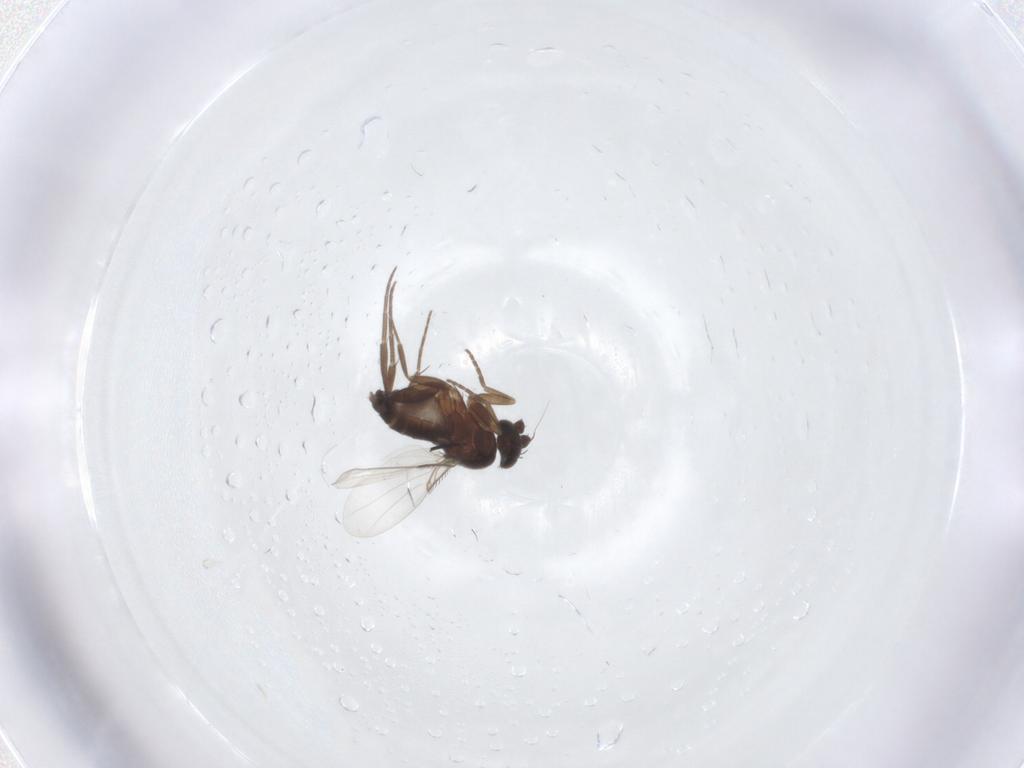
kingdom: Animalia
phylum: Arthropoda
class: Insecta
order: Diptera
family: Phoridae
